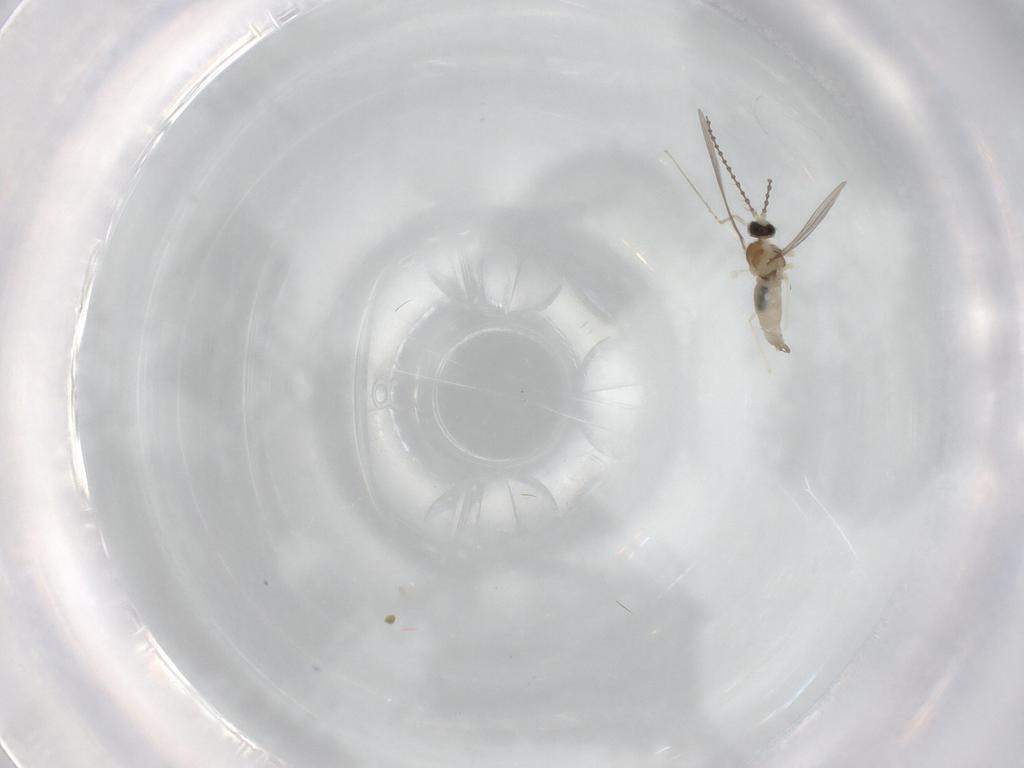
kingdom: Animalia
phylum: Arthropoda
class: Insecta
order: Diptera
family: Cecidomyiidae
